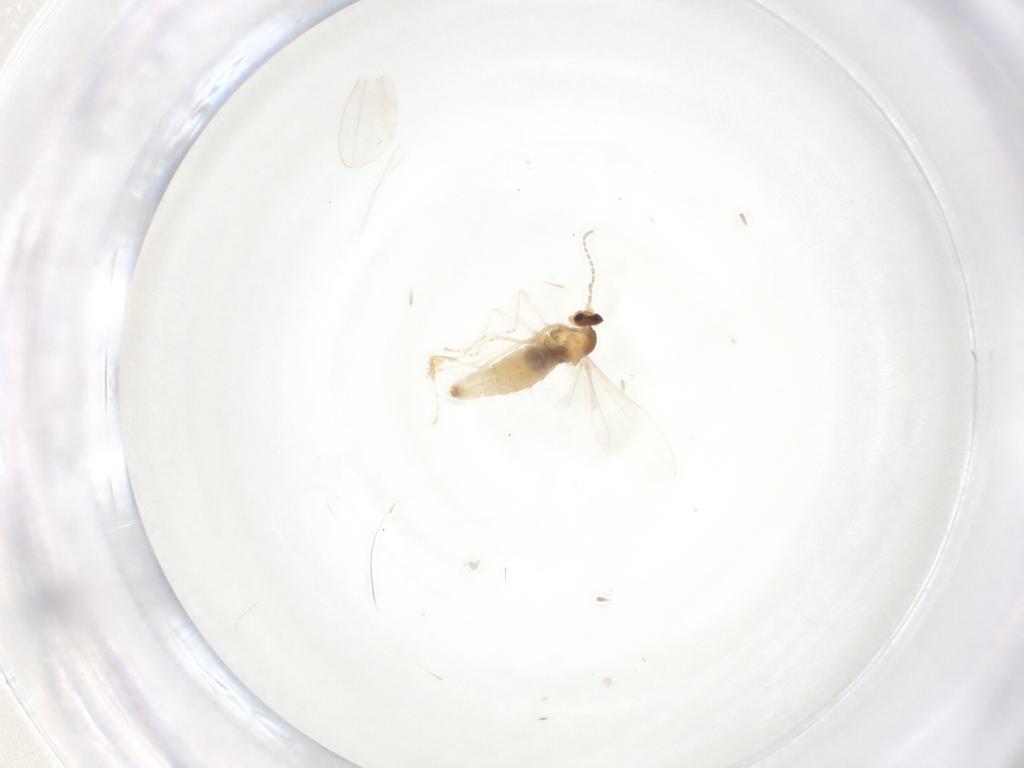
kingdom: Animalia
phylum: Arthropoda
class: Insecta
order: Diptera
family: Cecidomyiidae
